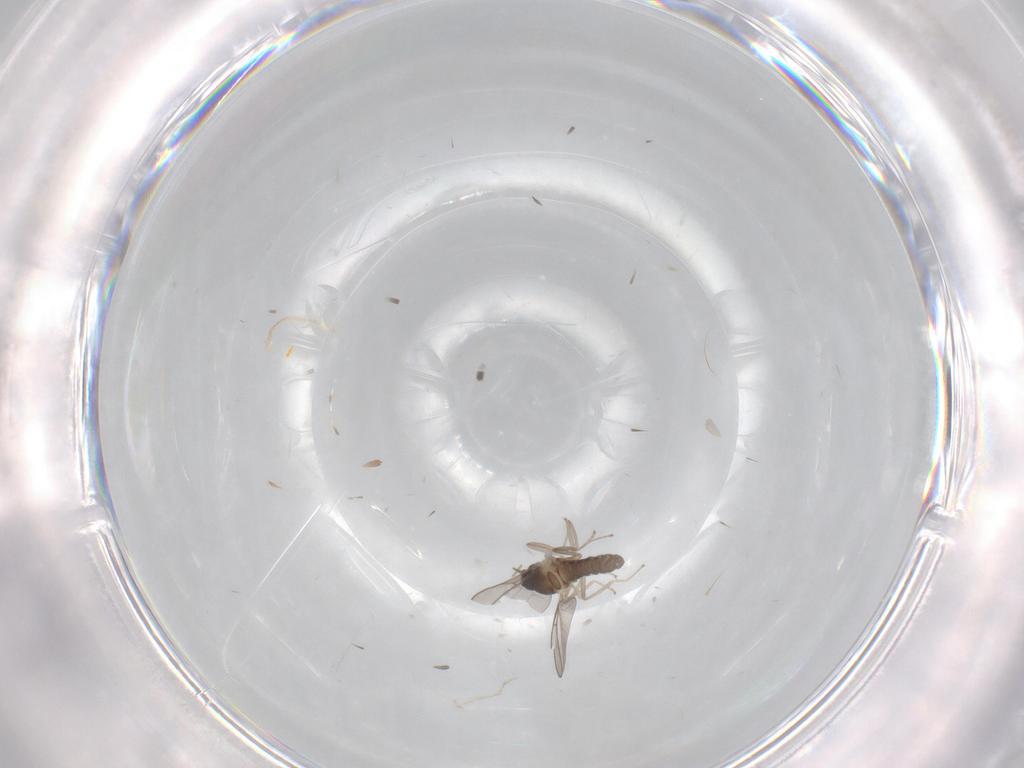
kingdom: Animalia
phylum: Arthropoda
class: Insecta
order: Diptera
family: Cecidomyiidae
